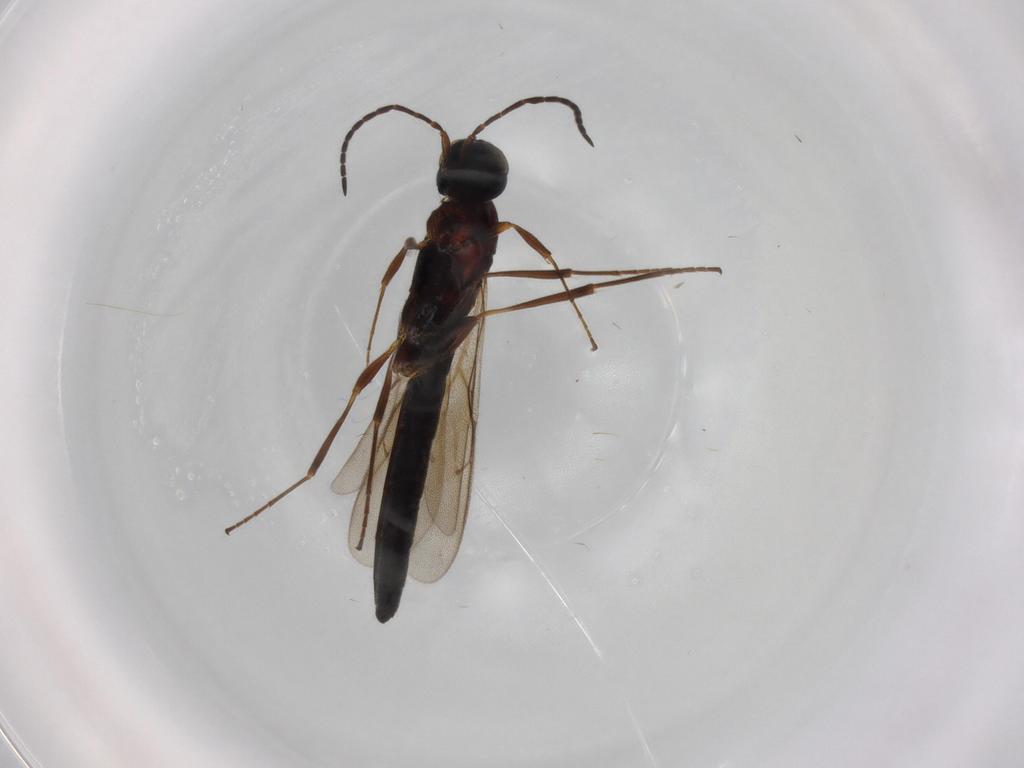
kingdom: Animalia
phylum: Arthropoda
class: Insecta
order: Hymenoptera
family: Scelionidae
